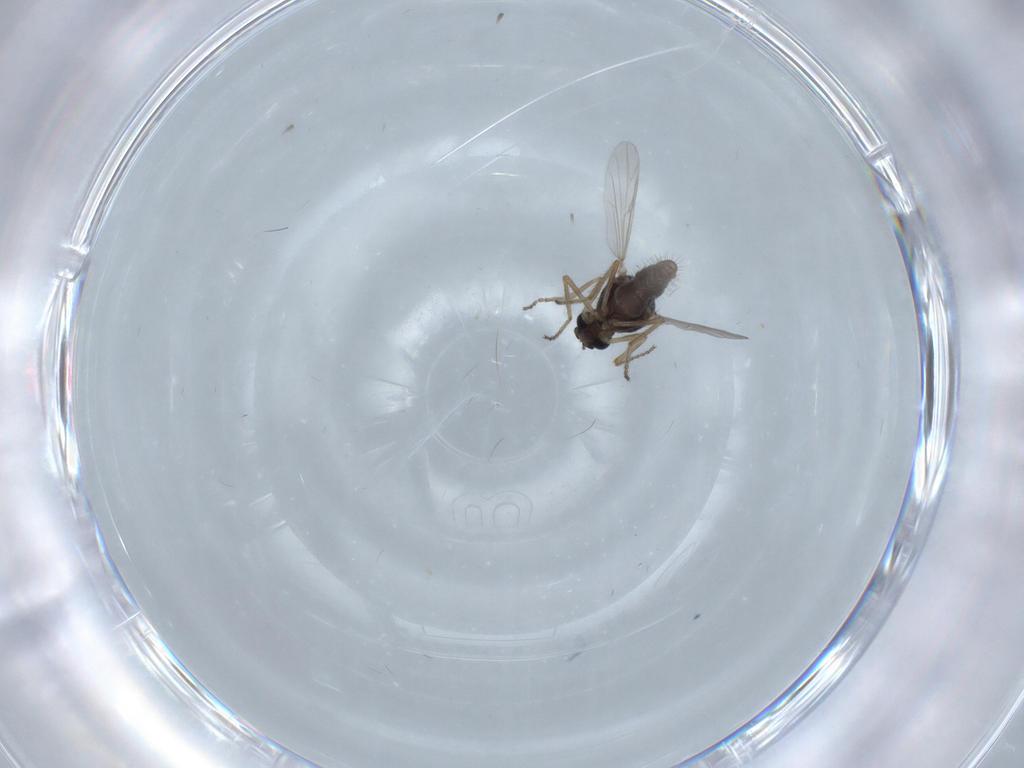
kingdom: Animalia
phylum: Arthropoda
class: Insecta
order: Diptera
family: Ceratopogonidae
